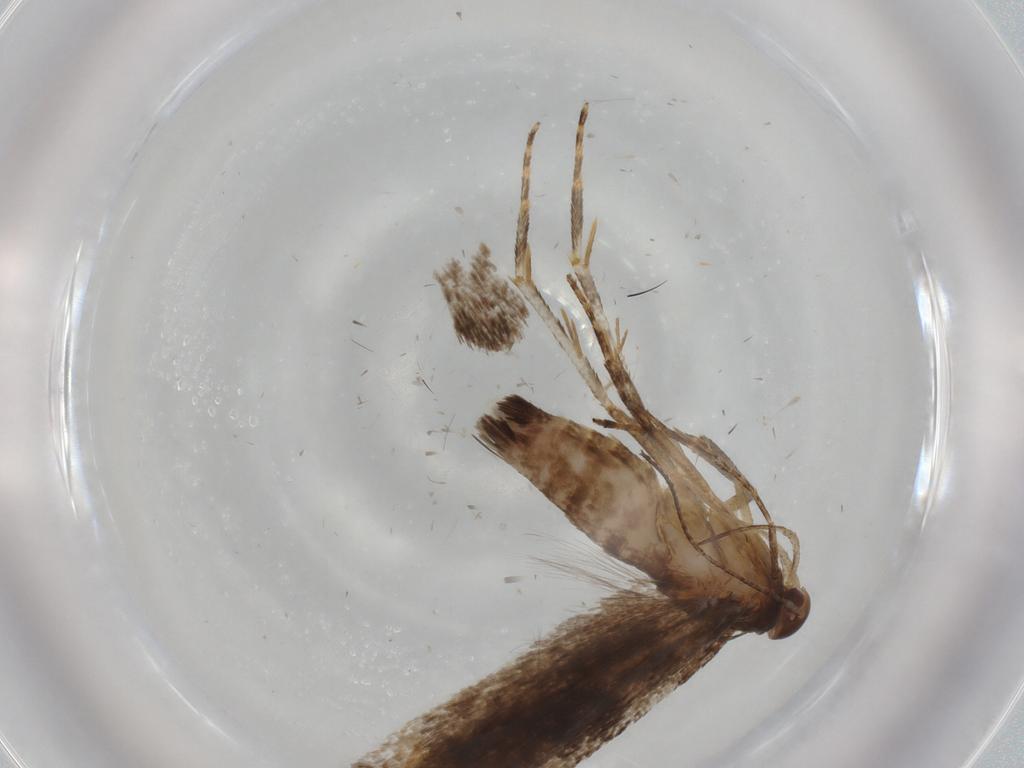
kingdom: Animalia
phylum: Arthropoda
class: Insecta
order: Lepidoptera
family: Gelechiidae
